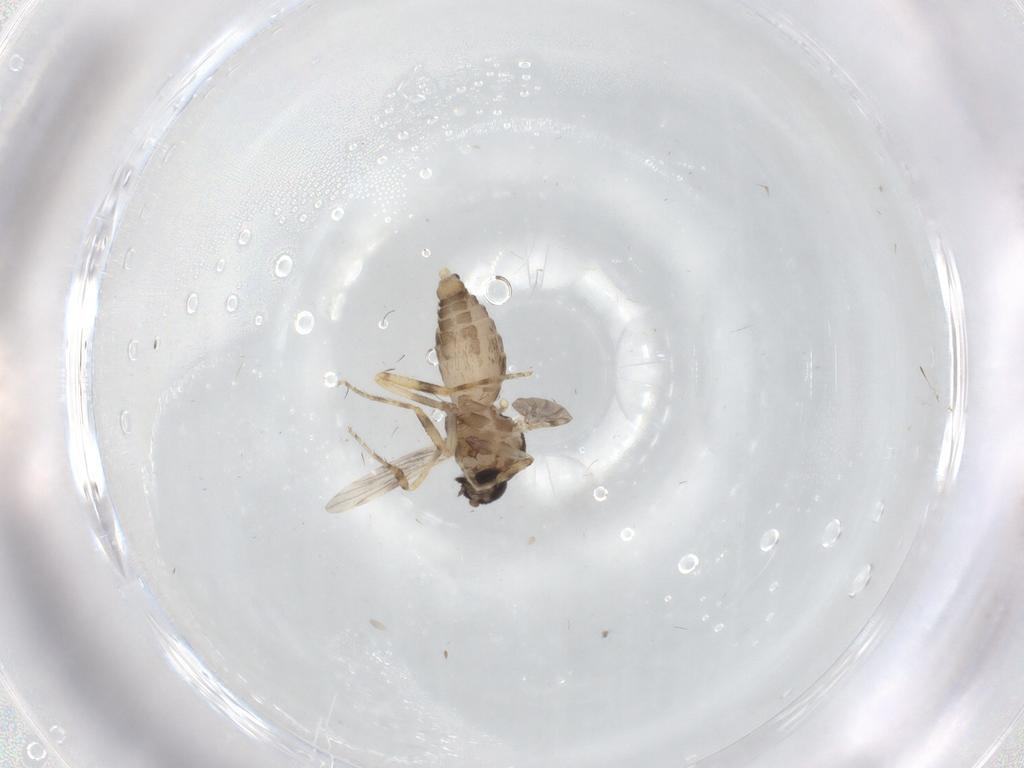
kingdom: Animalia
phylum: Arthropoda
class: Insecta
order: Diptera
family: Ceratopogonidae
